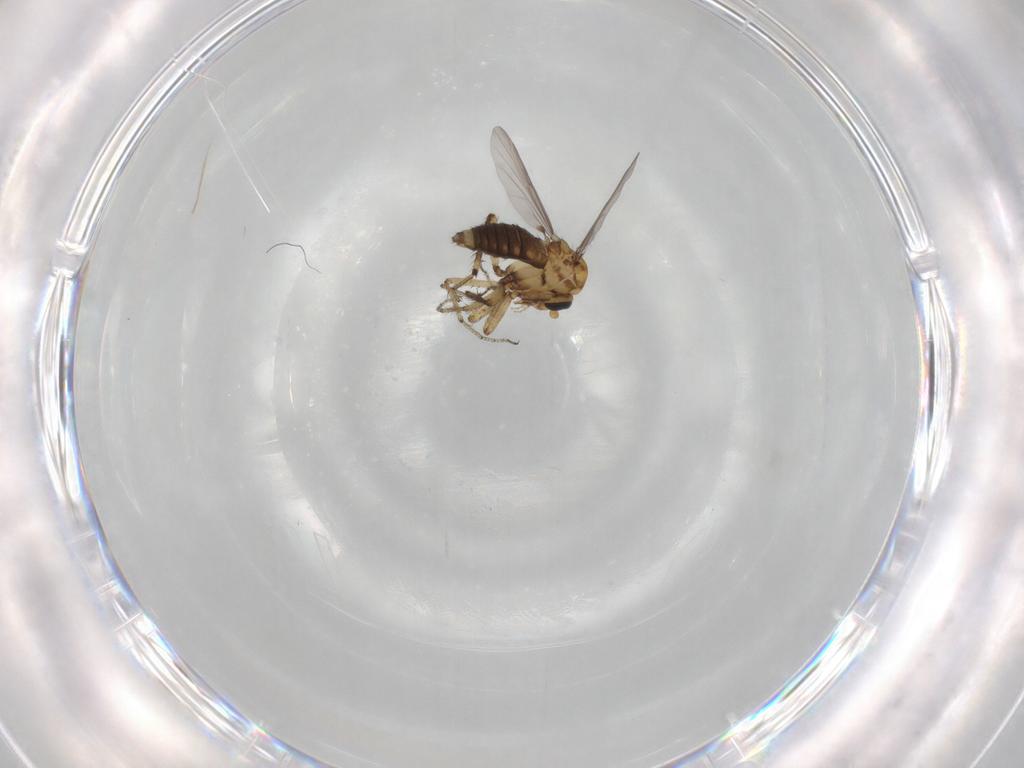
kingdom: Animalia
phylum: Arthropoda
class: Insecta
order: Diptera
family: Ceratopogonidae
